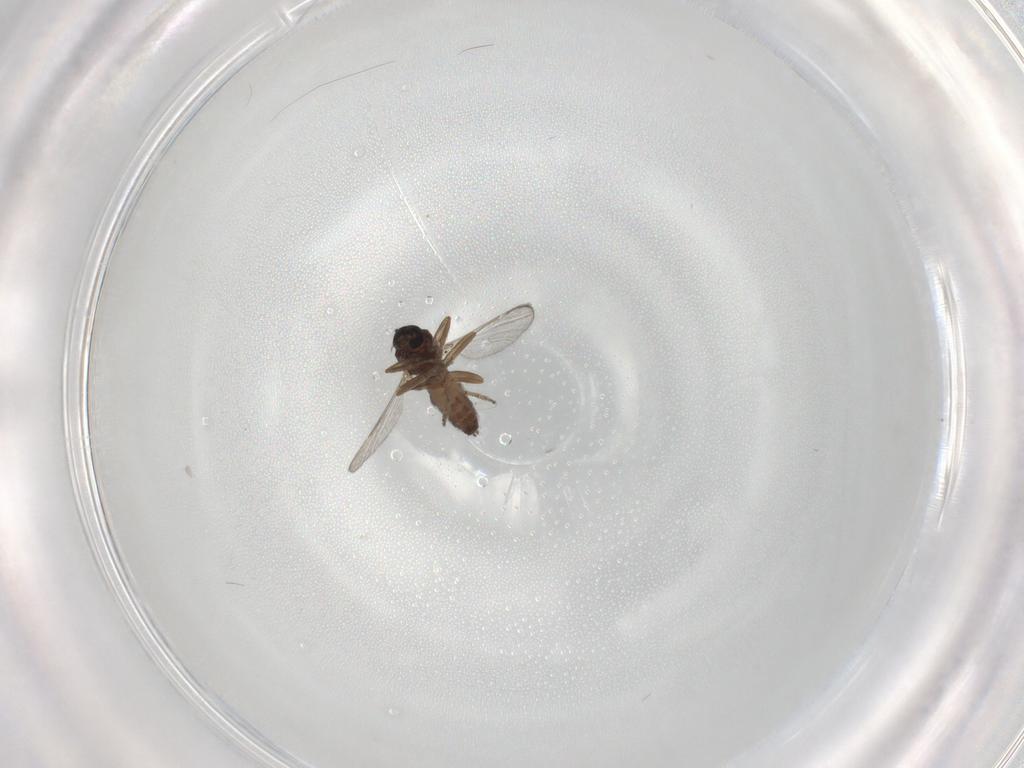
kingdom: Animalia
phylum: Arthropoda
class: Insecta
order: Diptera
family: Ceratopogonidae
